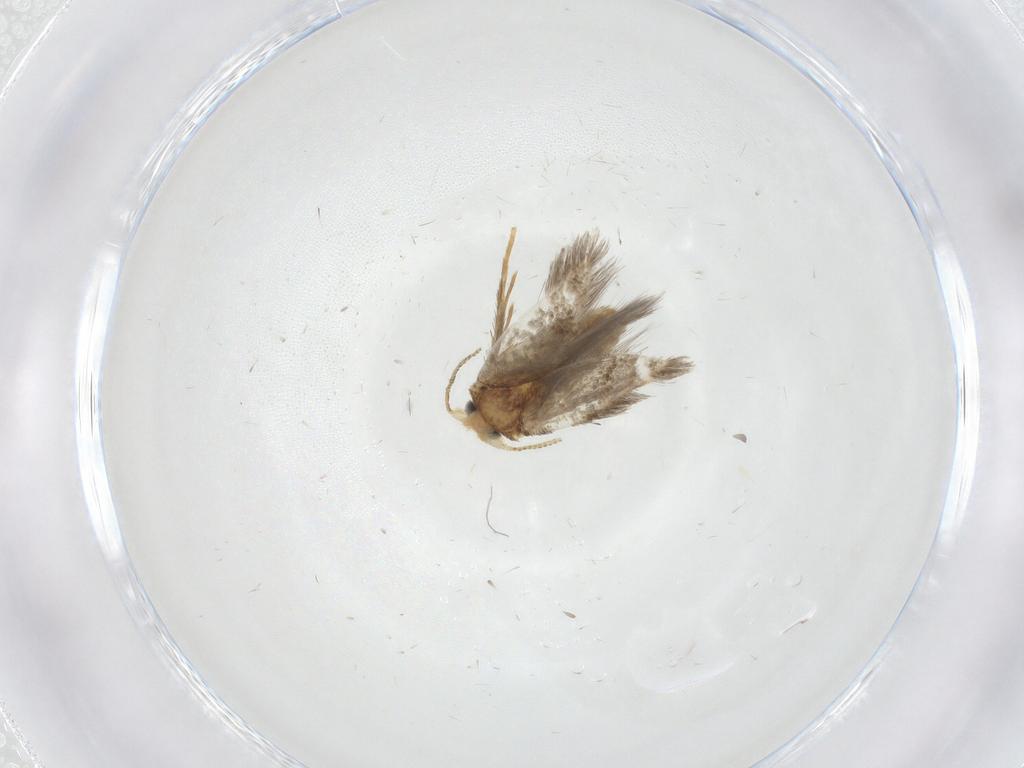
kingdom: Animalia
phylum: Arthropoda
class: Insecta
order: Lepidoptera
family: Nepticulidae
